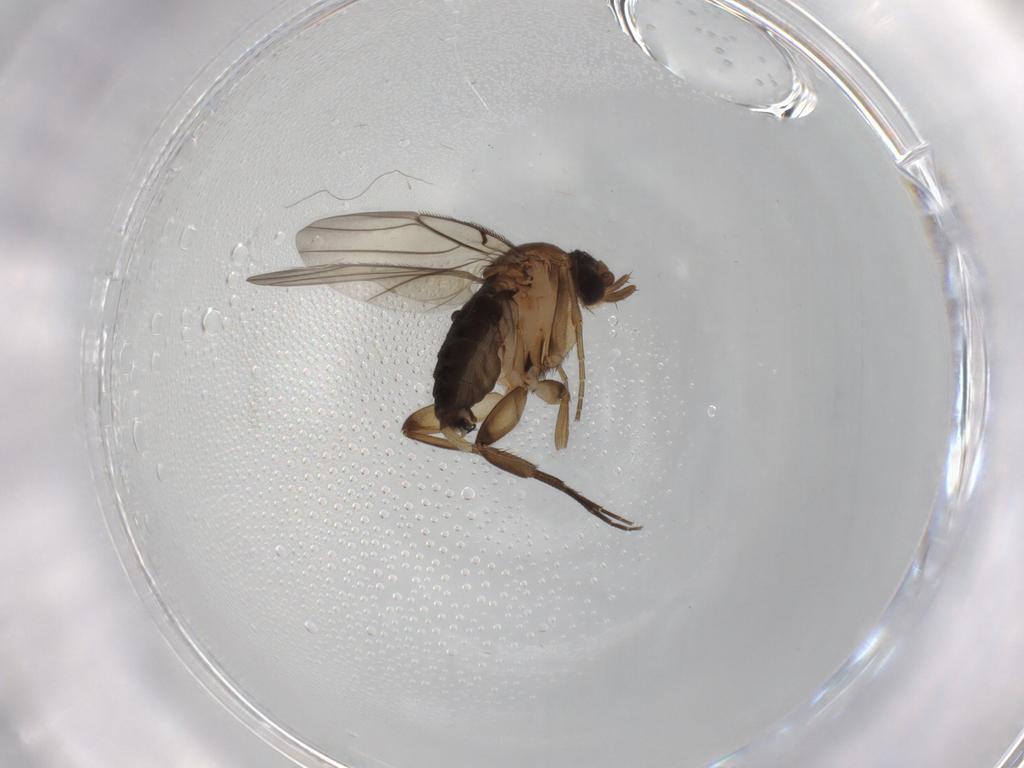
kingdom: Animalia
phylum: Arthropoda
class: Insecta
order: Diptera
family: Phoridae
